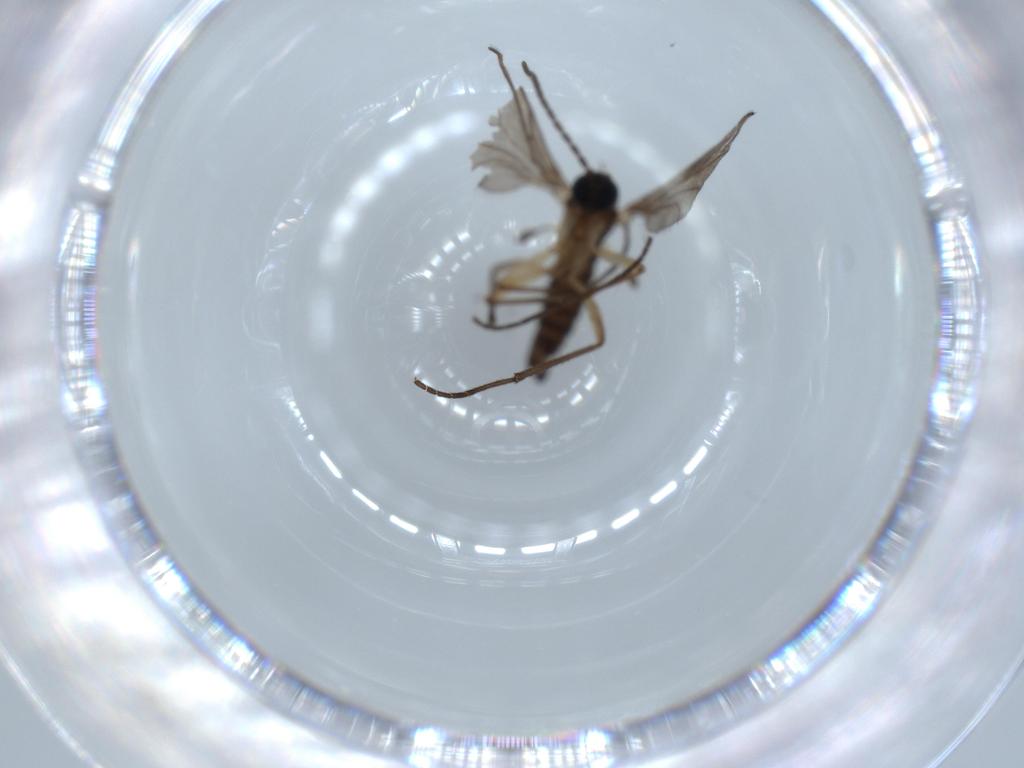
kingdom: Animalia
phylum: Arthropoda
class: Insecta
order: Diptera
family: Sciaridae
